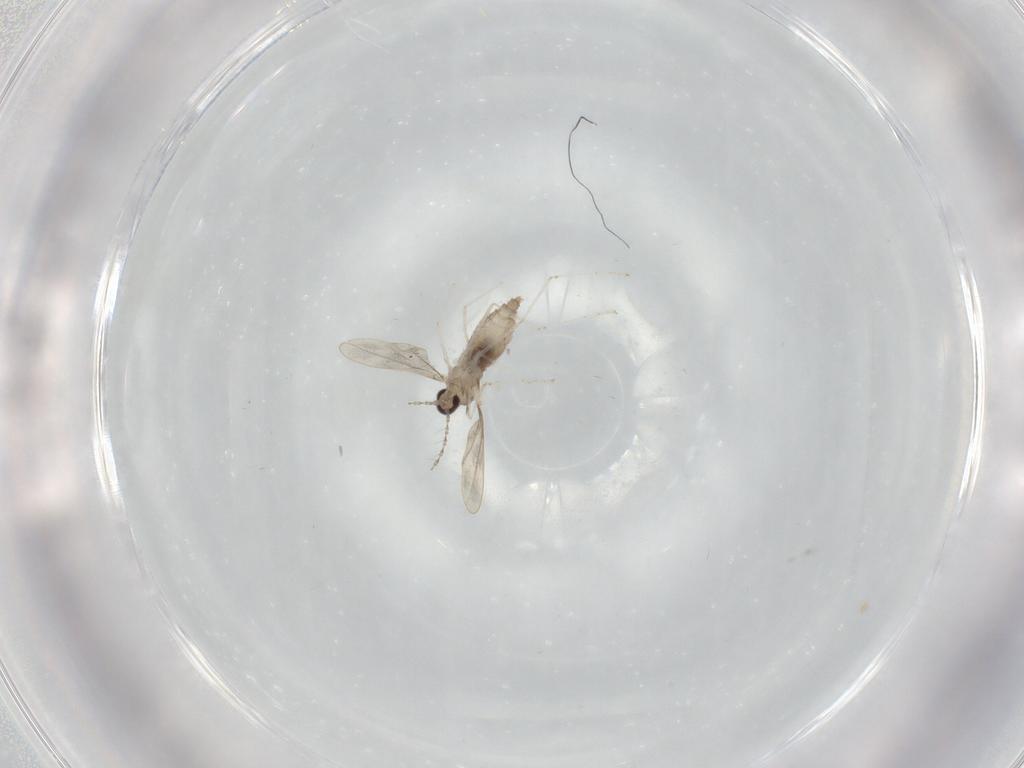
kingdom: Animalia
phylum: Arthropoda
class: Insecta
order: Diptera
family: Cecidomyiidae
